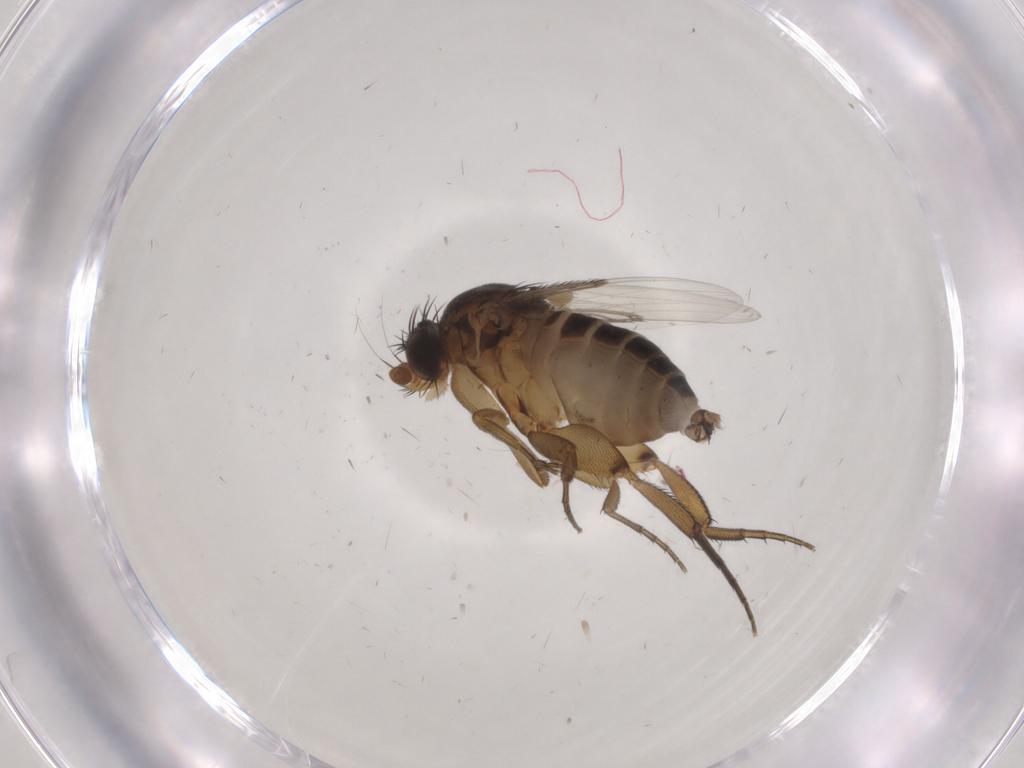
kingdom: Animalia
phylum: Arthropoda
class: Insecta
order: Diptera
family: Phoridae
